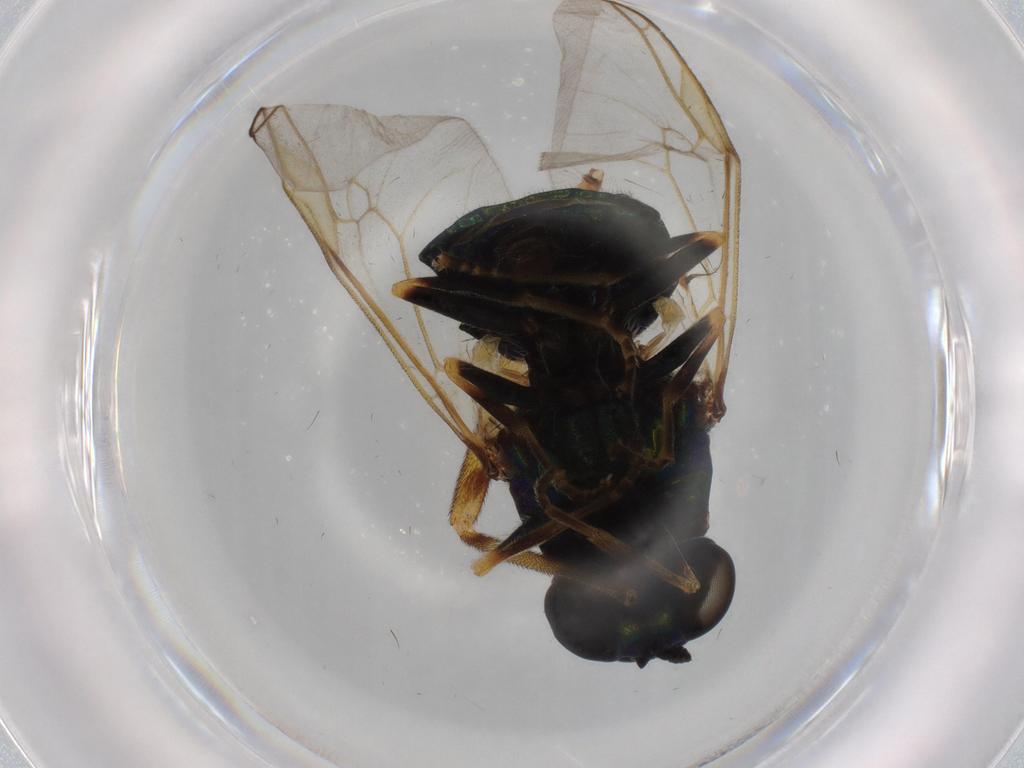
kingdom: Animalia
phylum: Arthropoda
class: Insecta
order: Diptera
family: Stratiomyidae
